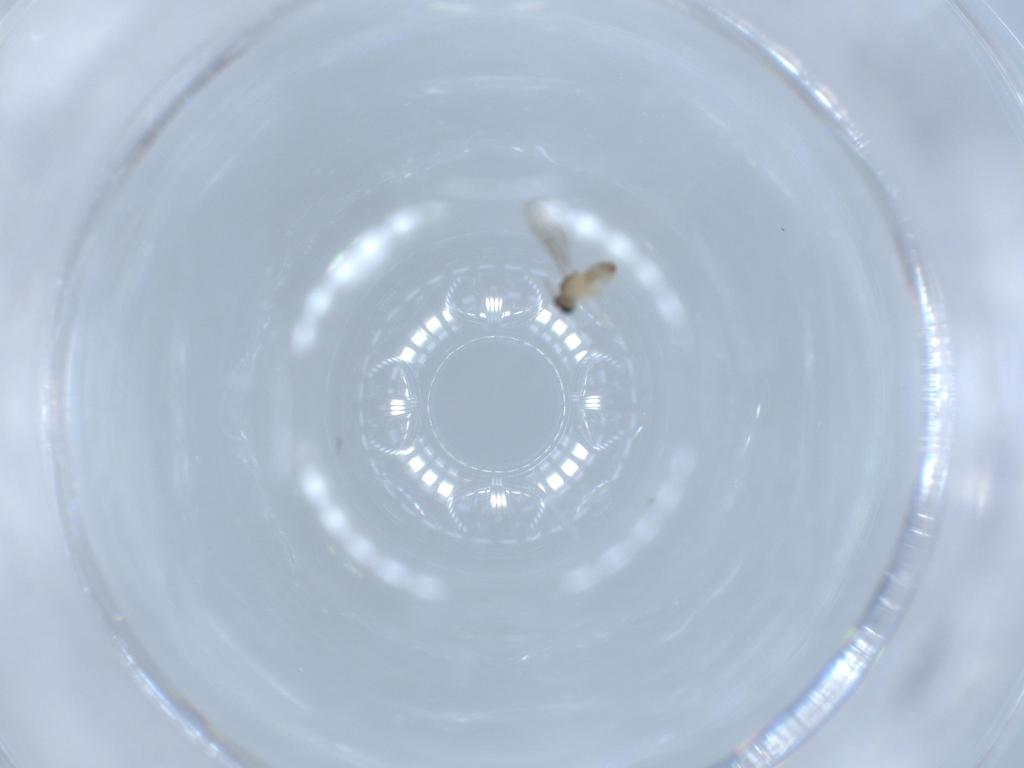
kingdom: Animalia
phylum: Arthropoda
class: Insecta
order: Diptera
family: Cecidomyiidae
